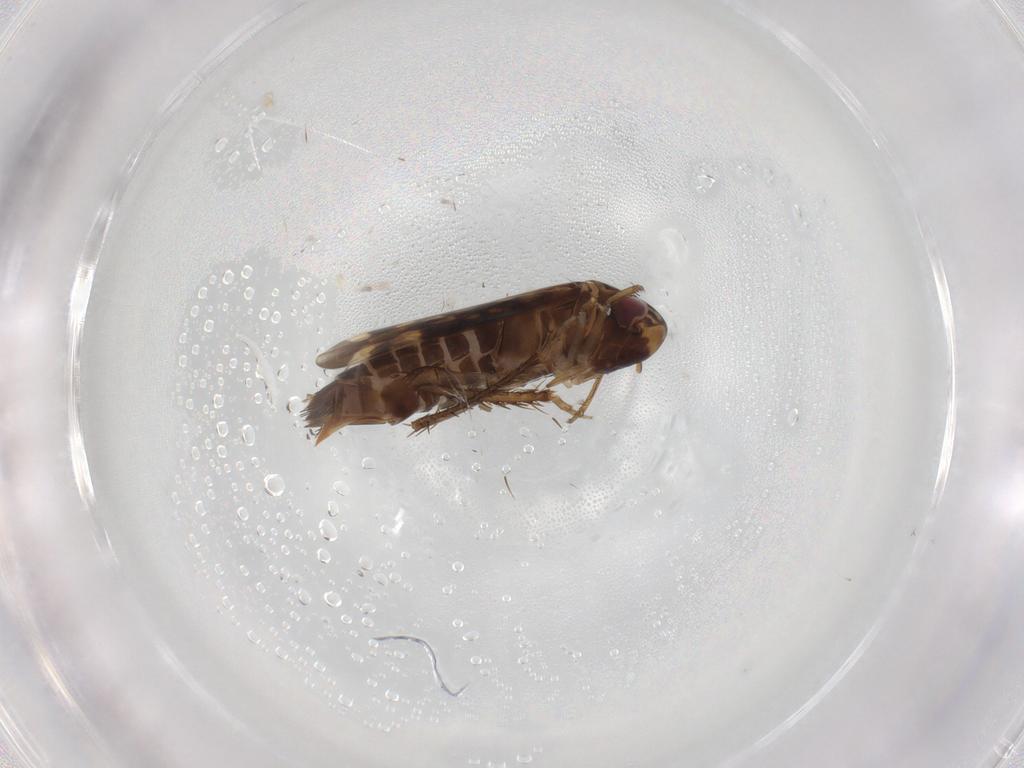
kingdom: Animalia
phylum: Arthropoda
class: Insecta
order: Hemiptera
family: Cicadellidae
